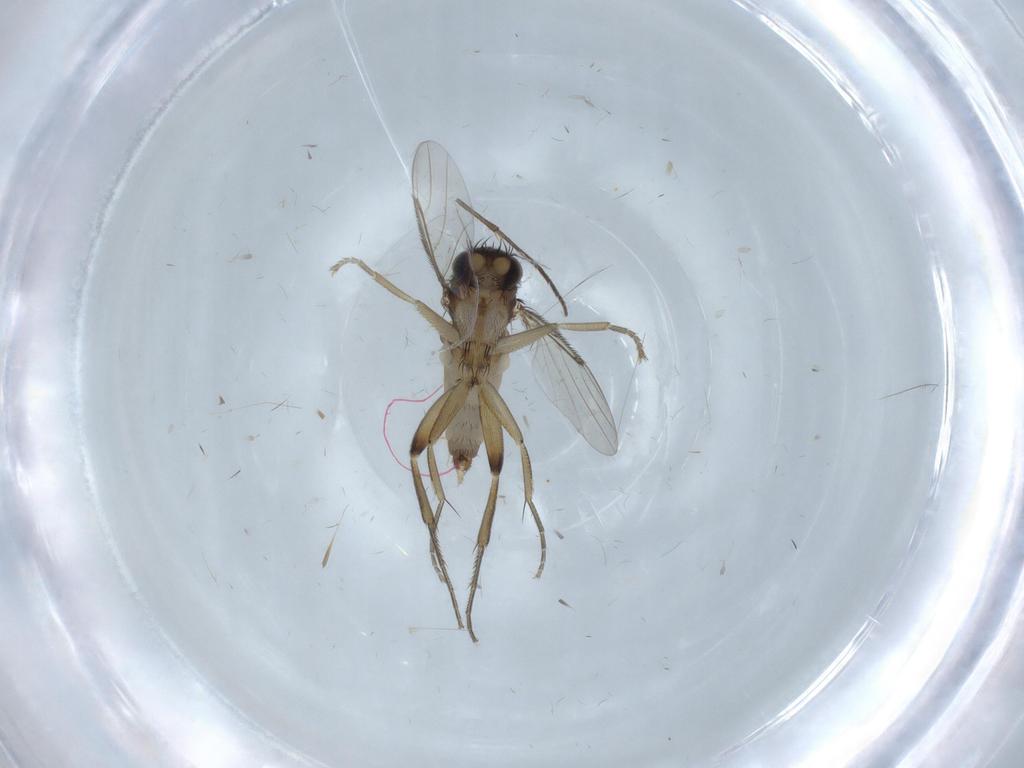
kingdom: Animalia
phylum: Arthropoda
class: Insecta
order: Diptera
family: Phoridae
